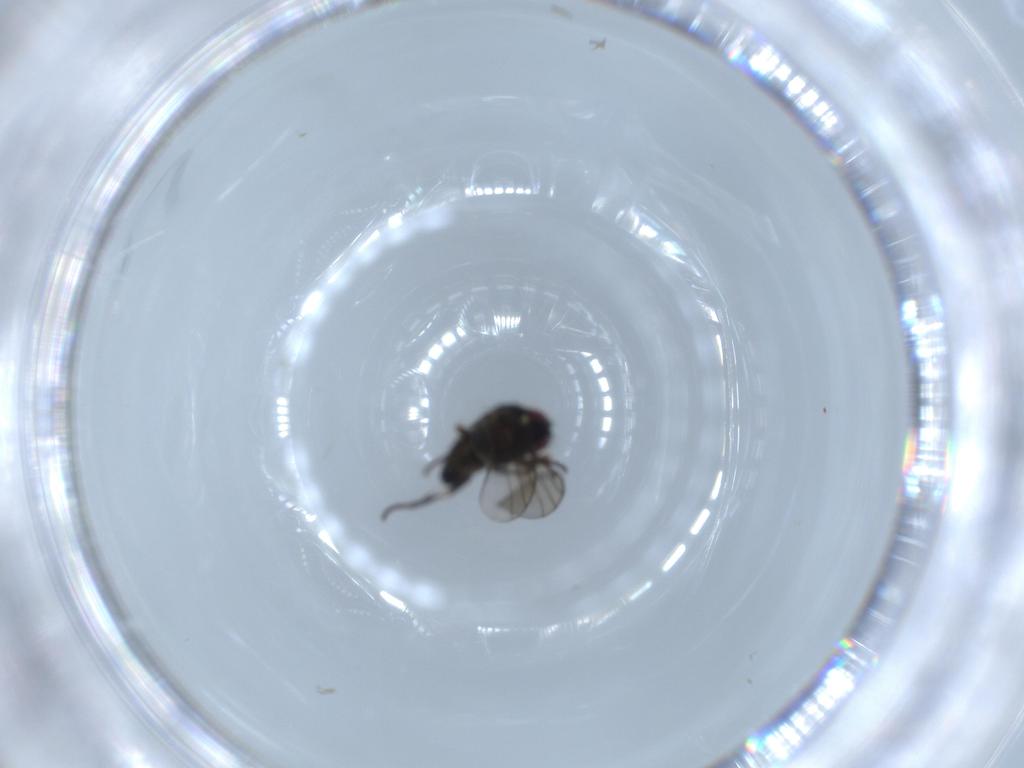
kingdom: Animalia
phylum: Arthropoda
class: Insecta
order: Diptera
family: Agromyzidae
